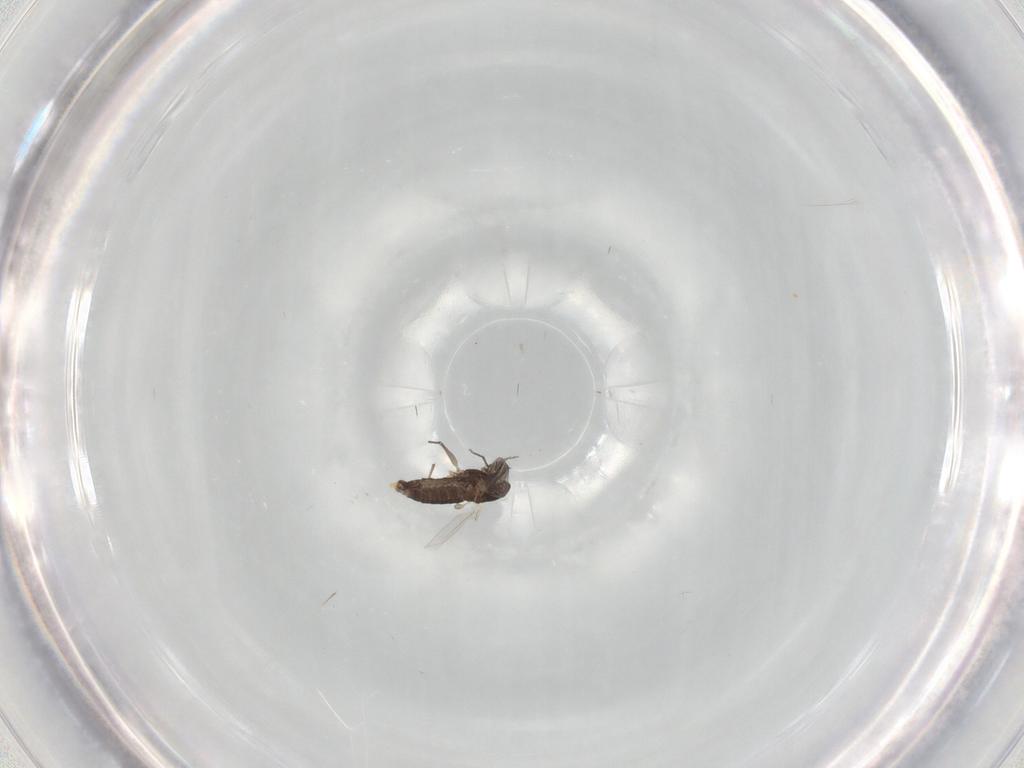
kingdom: Animalia
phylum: Arthropoda
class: Insecta
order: Diptera
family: Chironomidae
